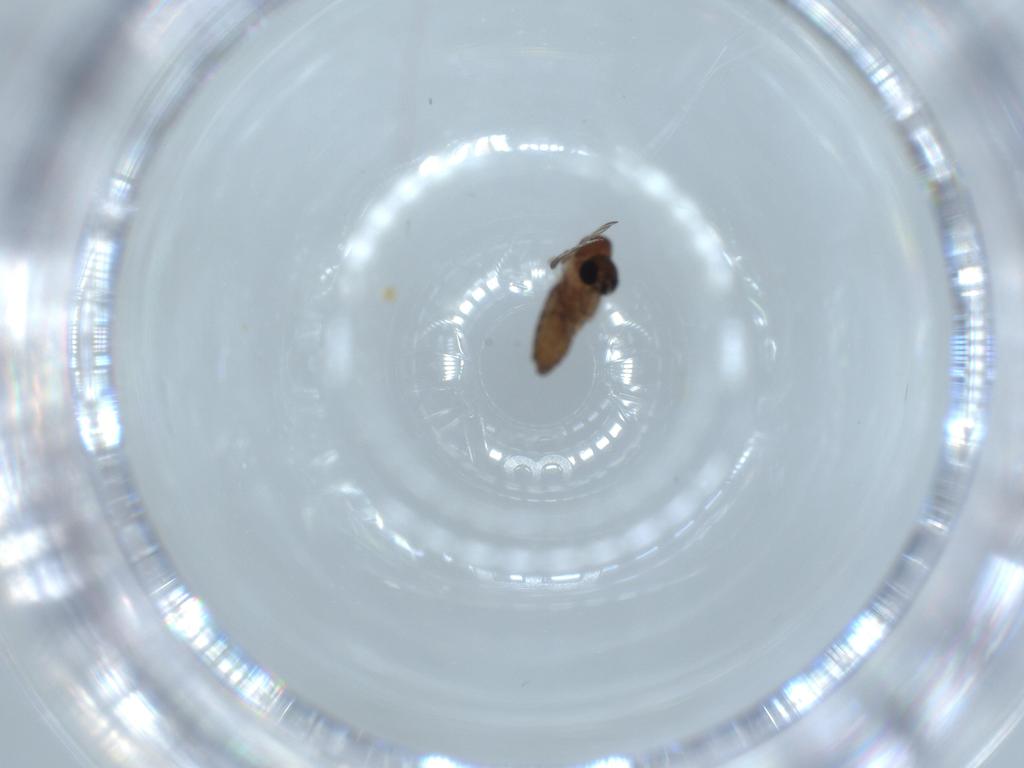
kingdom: Animalia
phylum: Arthropoda
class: Insecta
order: Diptera
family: Psychodidae
